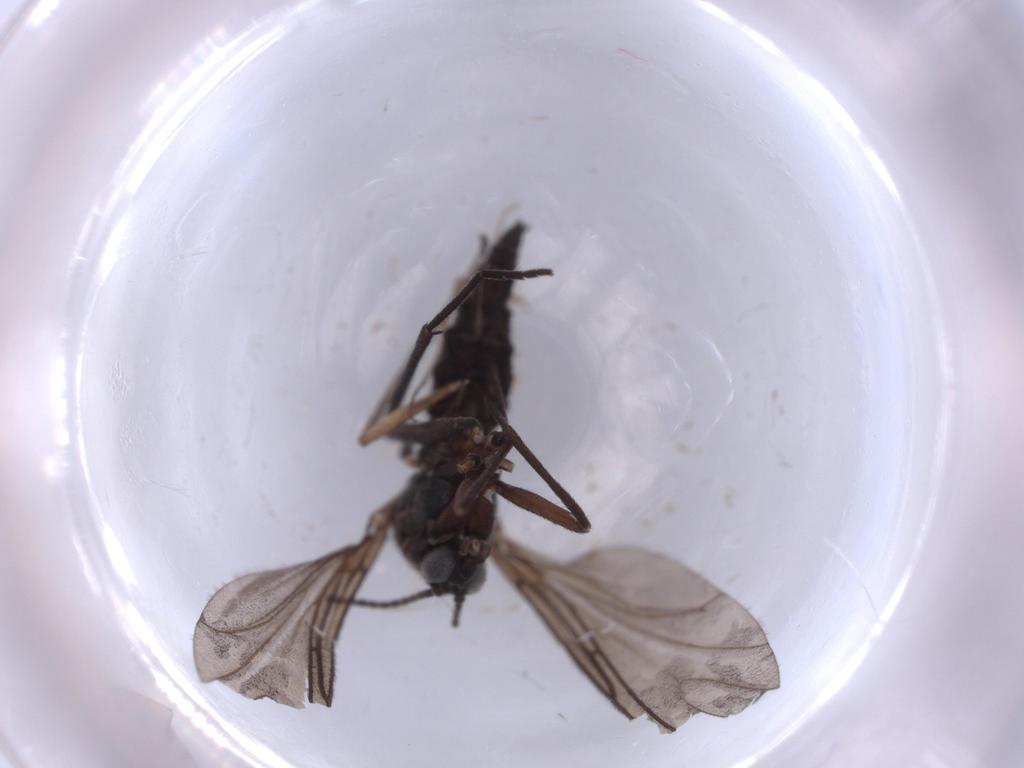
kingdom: Animalia
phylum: Arthropoda
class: Insecta
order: Diptera
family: Sciaridae
